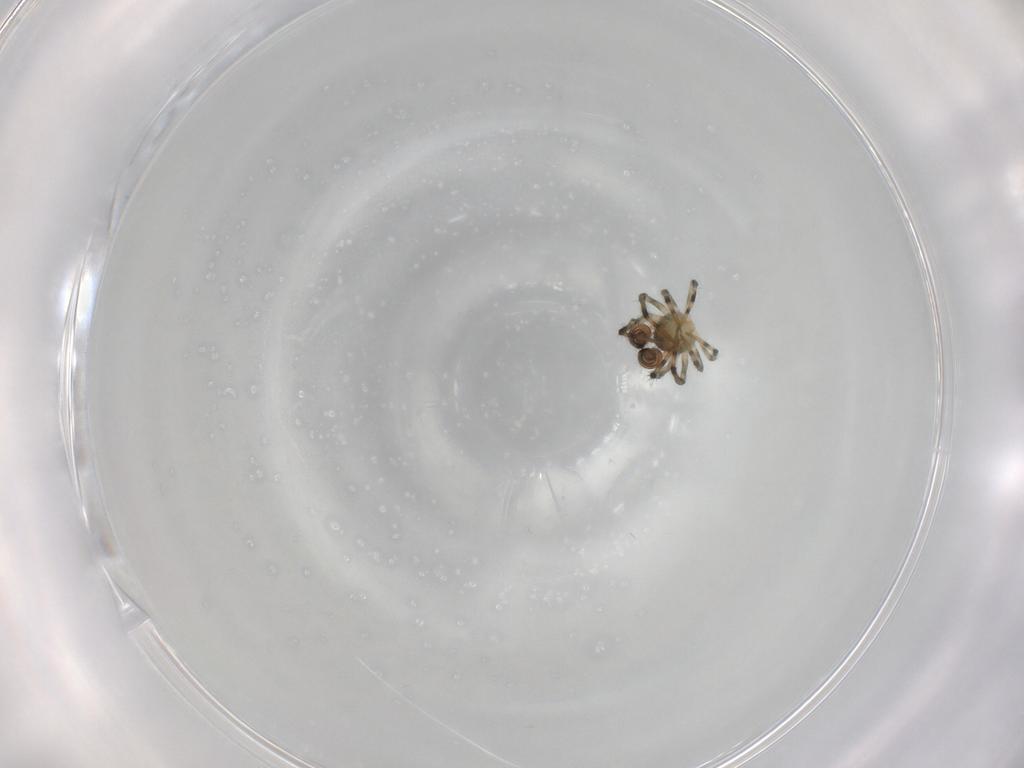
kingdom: Animalia
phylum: Arthropoda
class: Arachnida
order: Araneae
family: Mysmenidae
